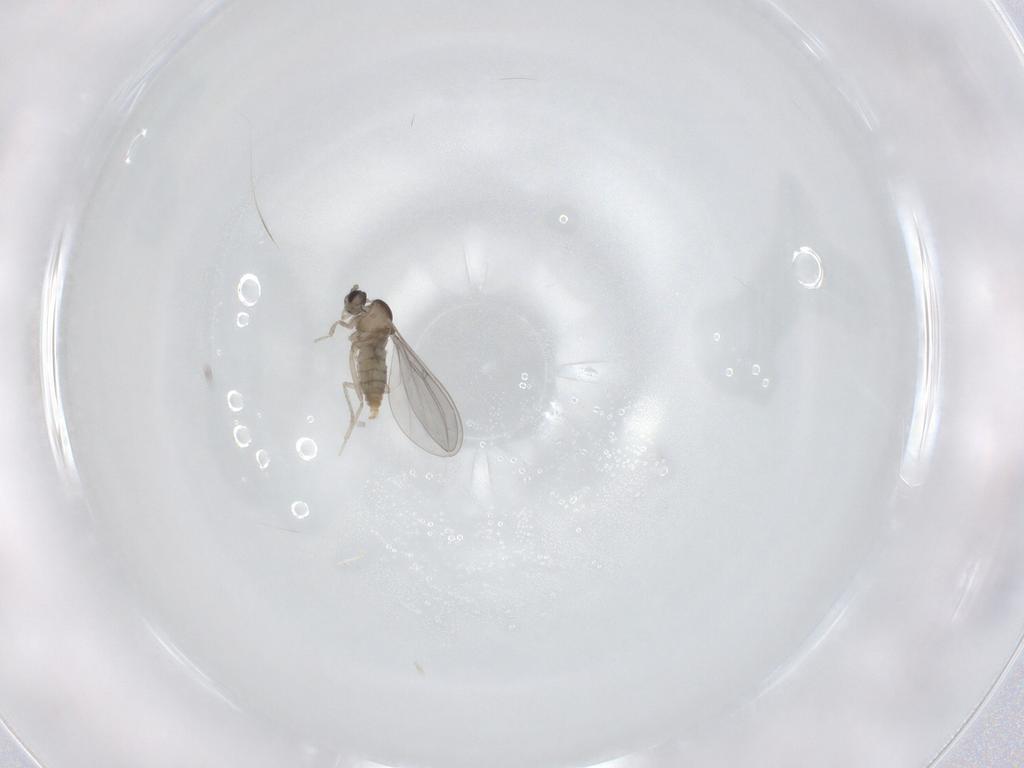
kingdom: Animalia
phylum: Arthropoda
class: Insecta
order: Diptera
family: Cecidomyiidae
